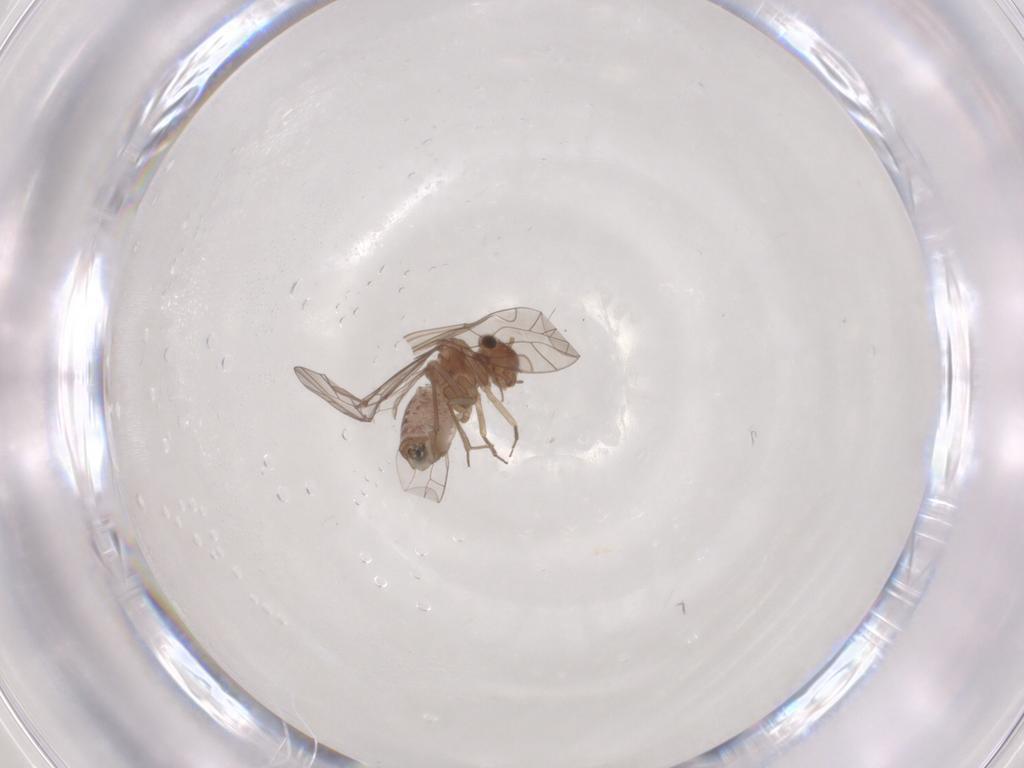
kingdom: Animalia
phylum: Arthropoda
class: Insecta
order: Psocodea
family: Lachesillidae
